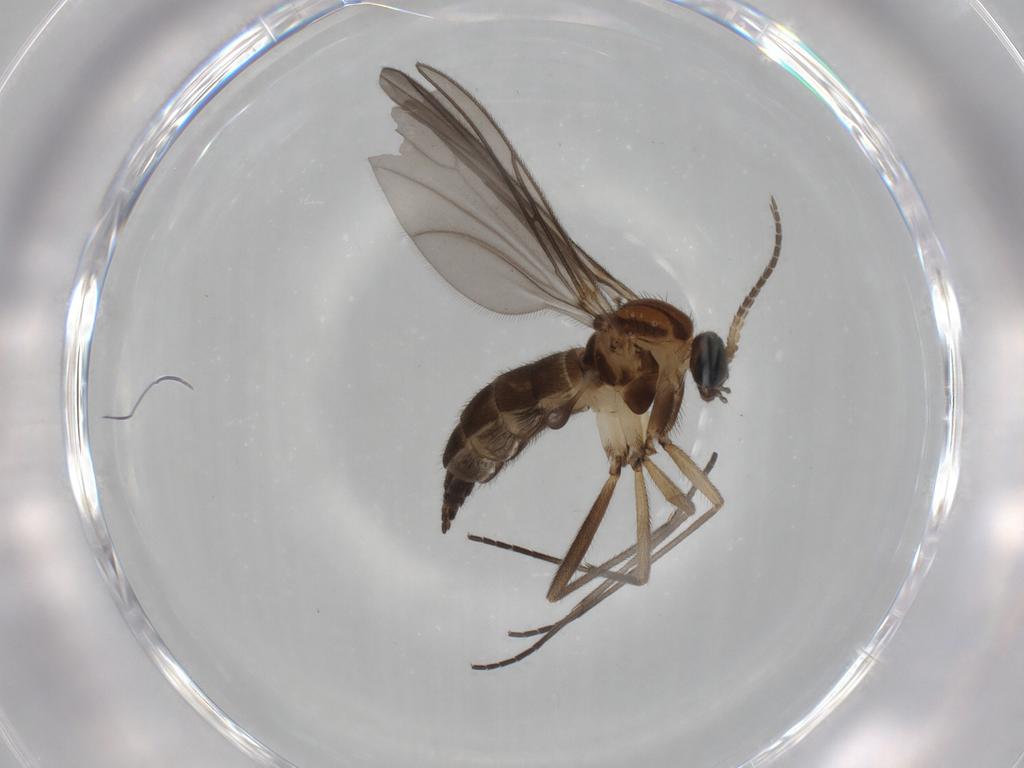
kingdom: Animalia
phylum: Arthropoda
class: Insecta
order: Diptera
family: Sciaridae
